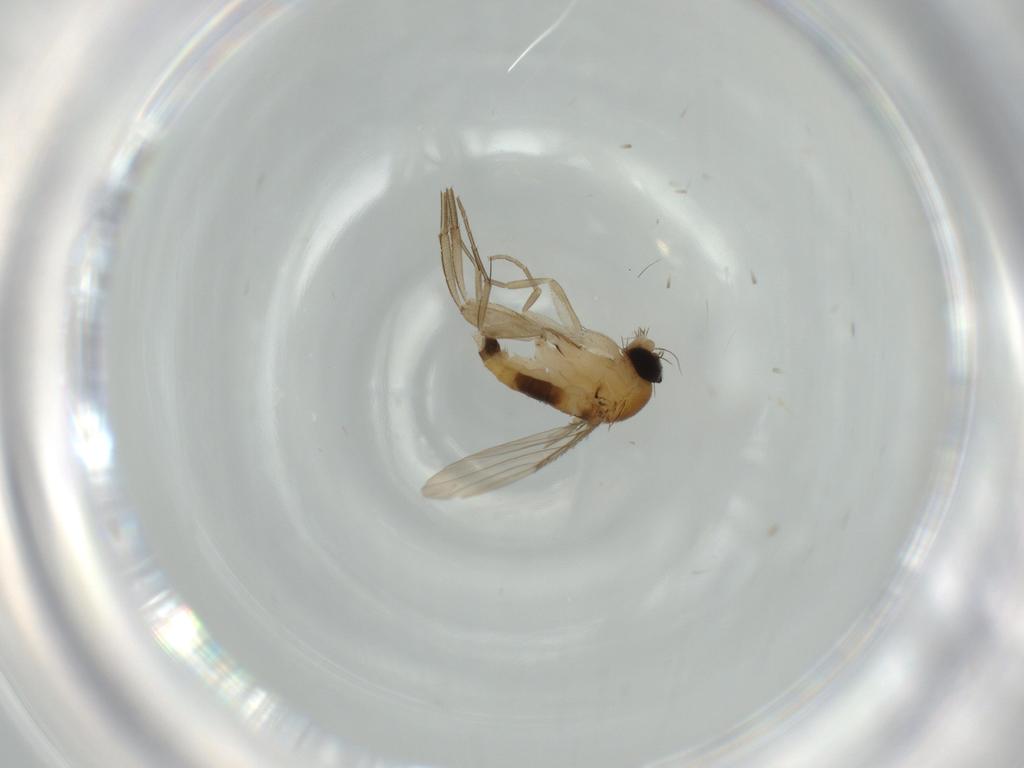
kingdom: Animalia
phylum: Arthropoda
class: Insecta
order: Diptera
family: Phoridae
